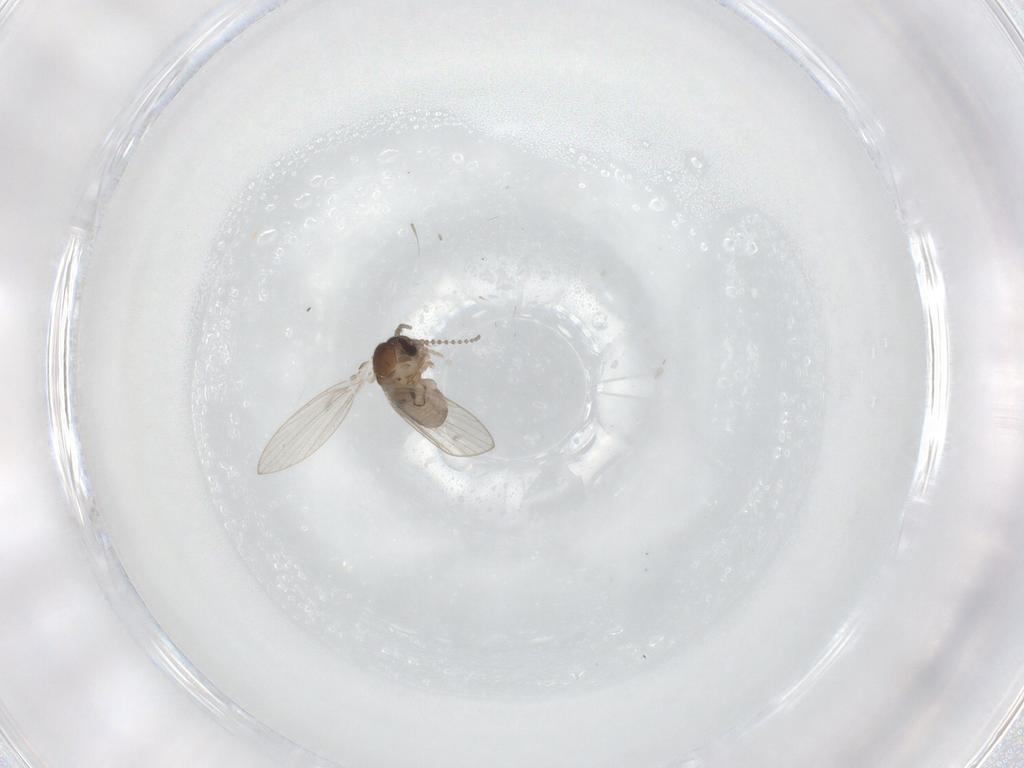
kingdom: Animalia
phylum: Arthropoda
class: Insecta
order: Diptera
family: Psychodidae
